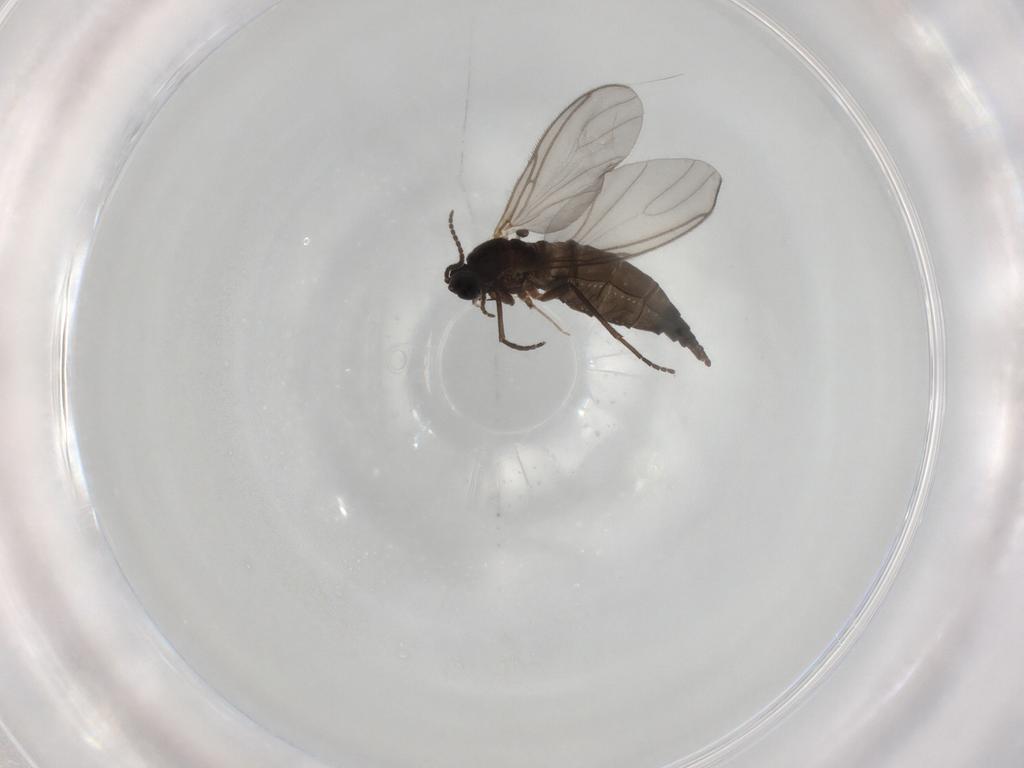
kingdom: Animalia
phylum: Arthropoda
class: Insecta
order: Diptera
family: Sciaridae
